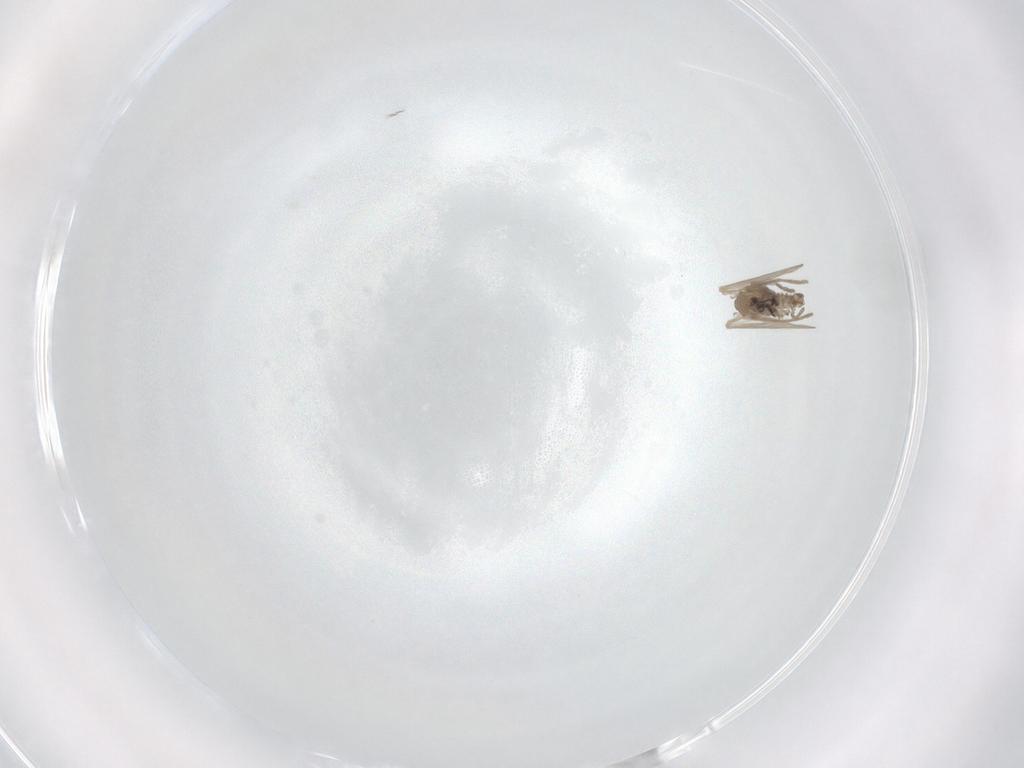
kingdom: Animalia
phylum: Arthropoda
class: Insecta
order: Diptera
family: Psychodidae
